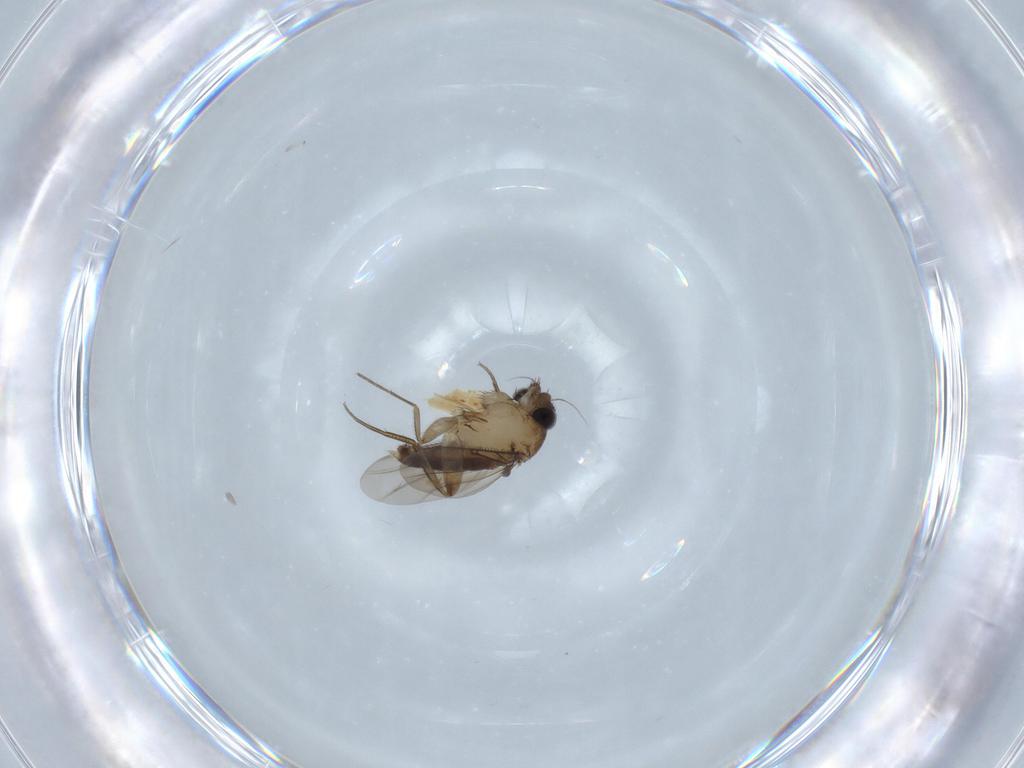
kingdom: Animalia
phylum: Arthropoda
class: Insecta
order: Diptera
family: Phoridae
